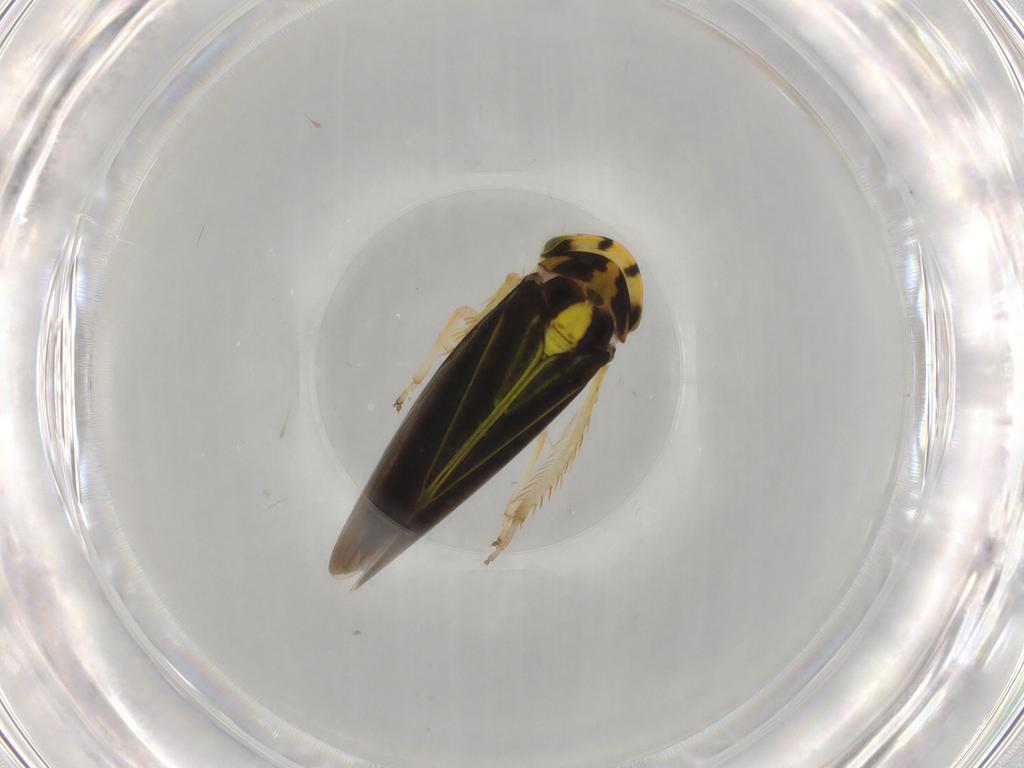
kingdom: Animalia
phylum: Arthropoda
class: Insecta
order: Hemiptera
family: Cicadellidae
